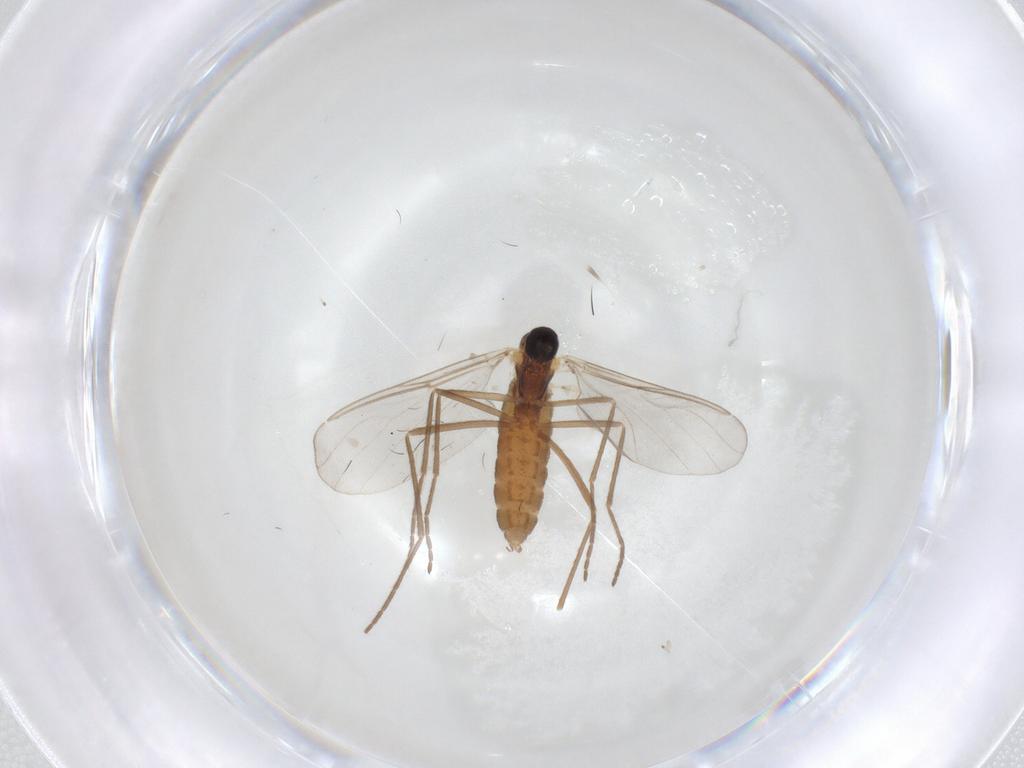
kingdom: Animalia
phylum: Arthropoda
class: Insecta
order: Diptera
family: Cecidomyiidae
